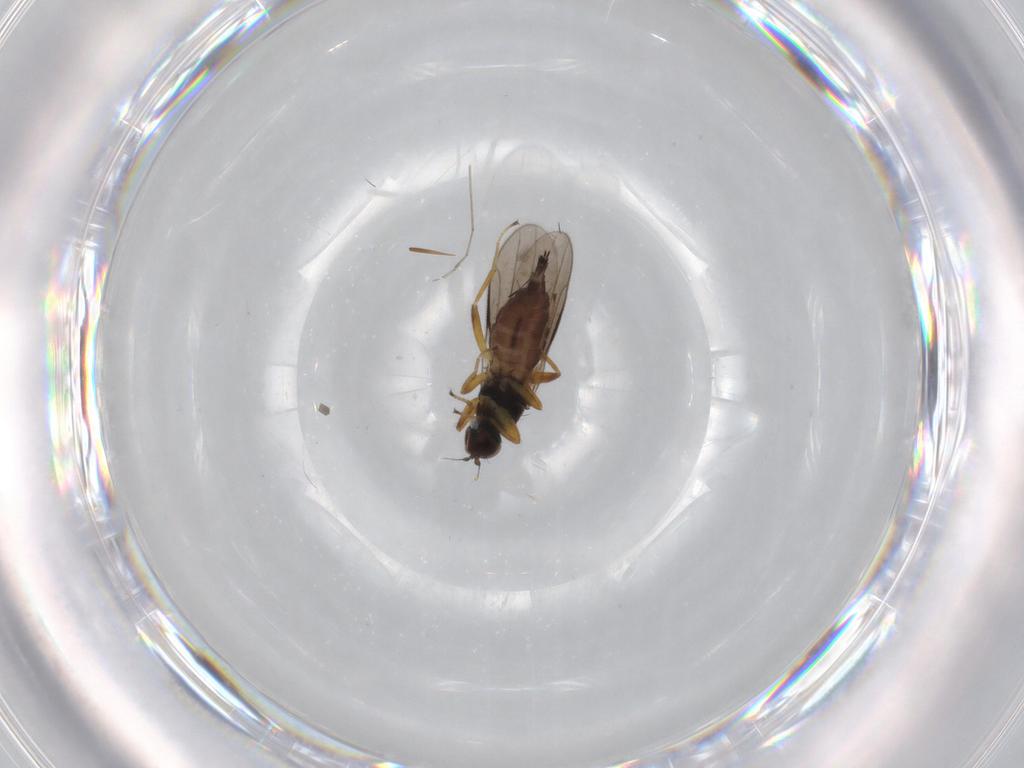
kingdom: Animalia
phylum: Arthropoda
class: Insecta
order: Diptera
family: Hybotidae
